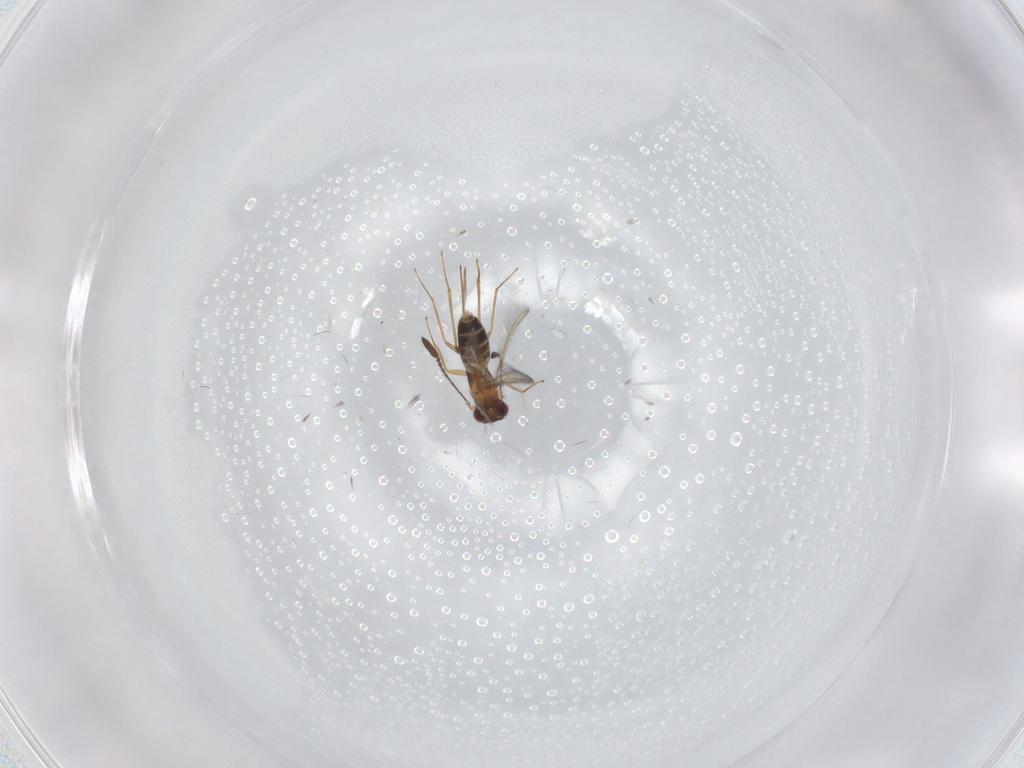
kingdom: Animalia
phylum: Arthropoda
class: Insecta
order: Hymenoptera
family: Mymaridae
